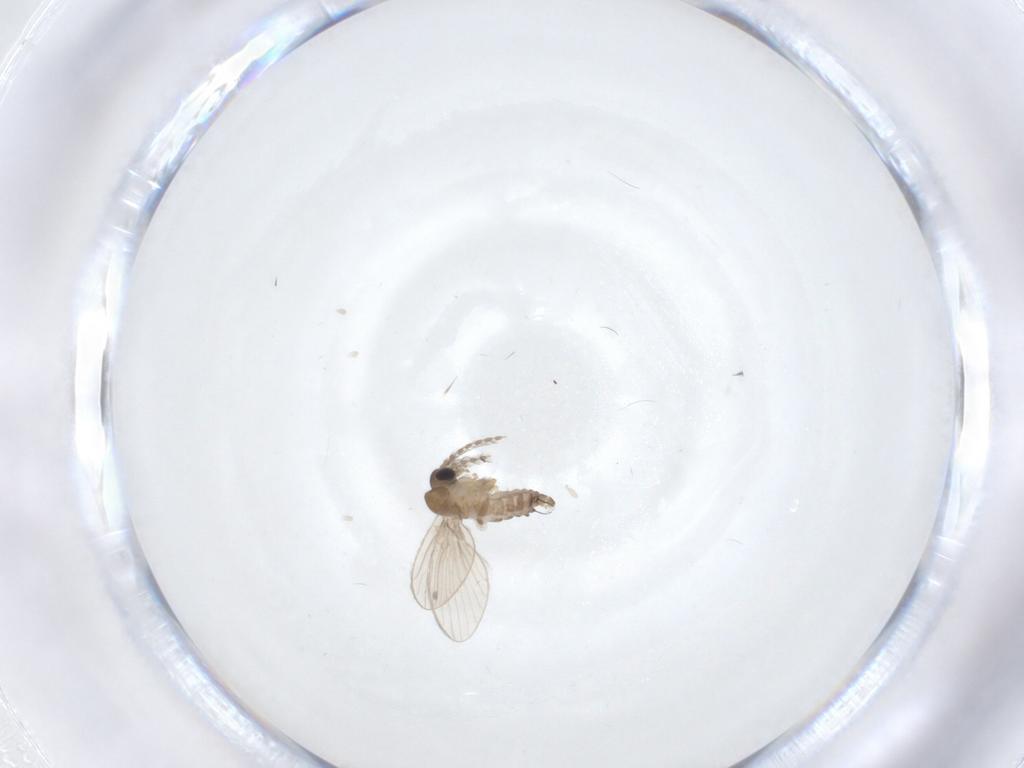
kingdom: Animalia
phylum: Arthropoda
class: Insecta
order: Diptera
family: Psychodidae
